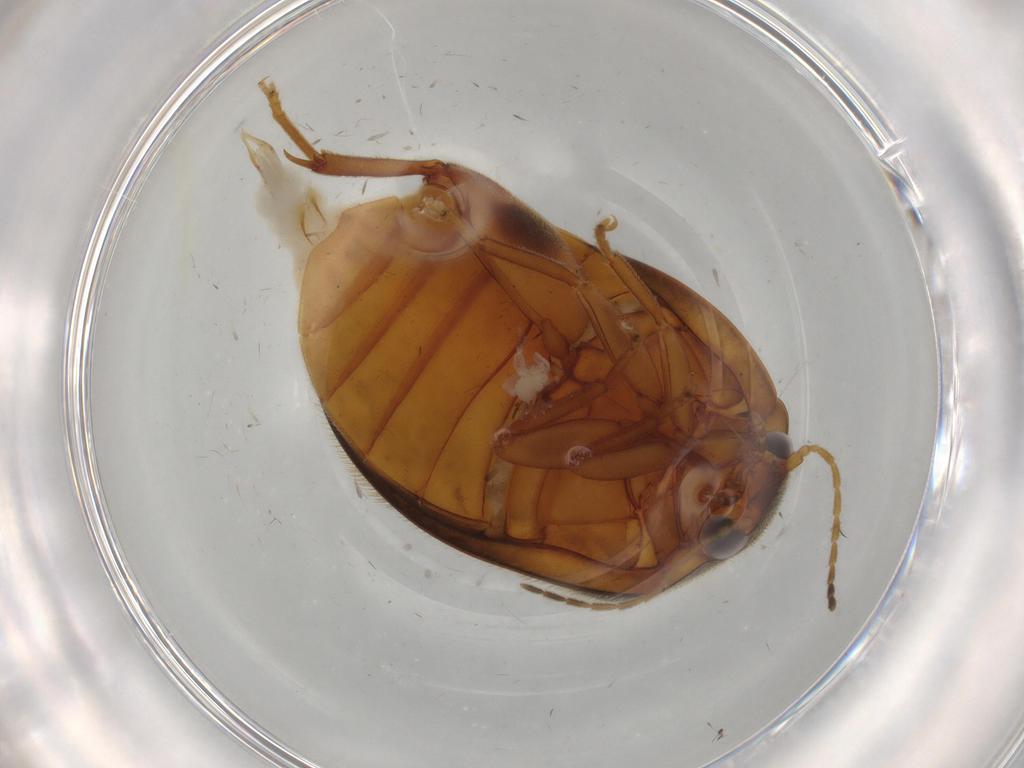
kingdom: Animalia
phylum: Arthropoda
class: Insecta
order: Coleoptera
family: Scirtidae
